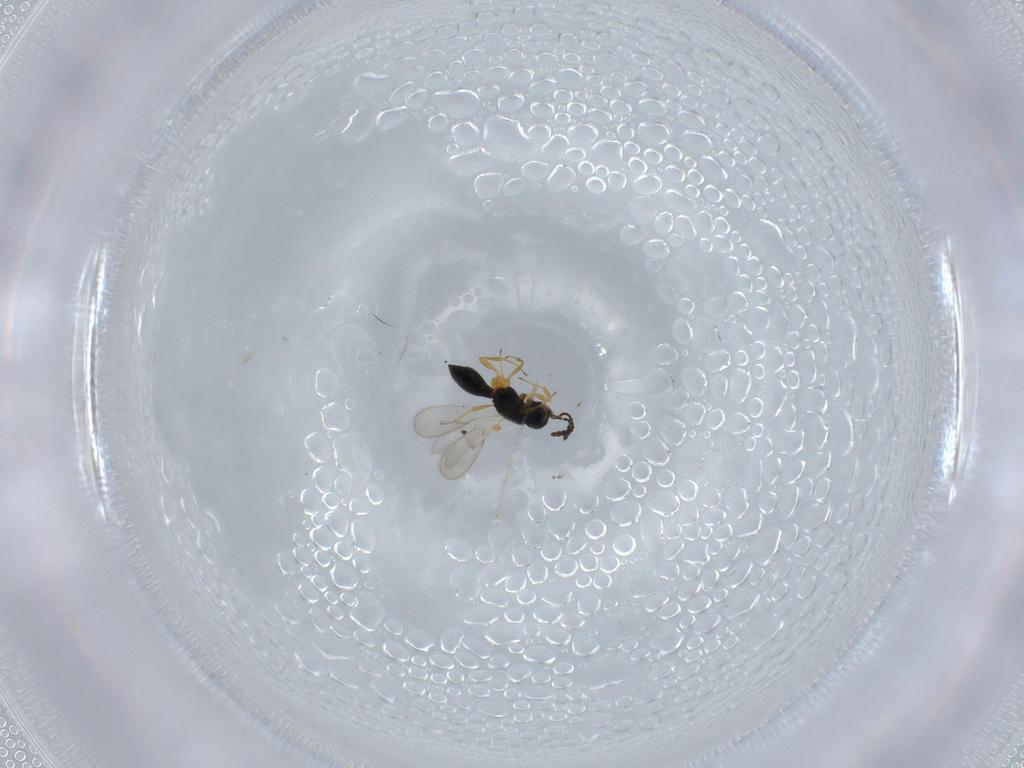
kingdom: Animalia
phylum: Arthropoda
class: Insecta
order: Hymenoptera
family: Scelionidae
